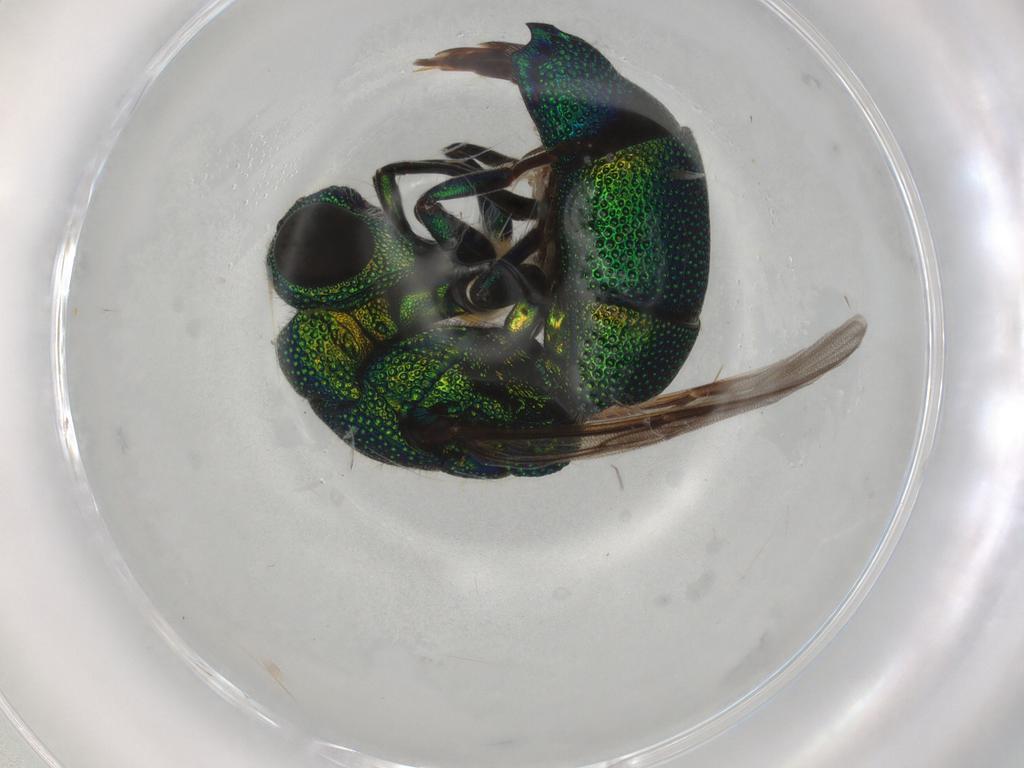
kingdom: Animalia
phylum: Arthropoda
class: Insecta
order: Hymenoptera
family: Chrysididae
